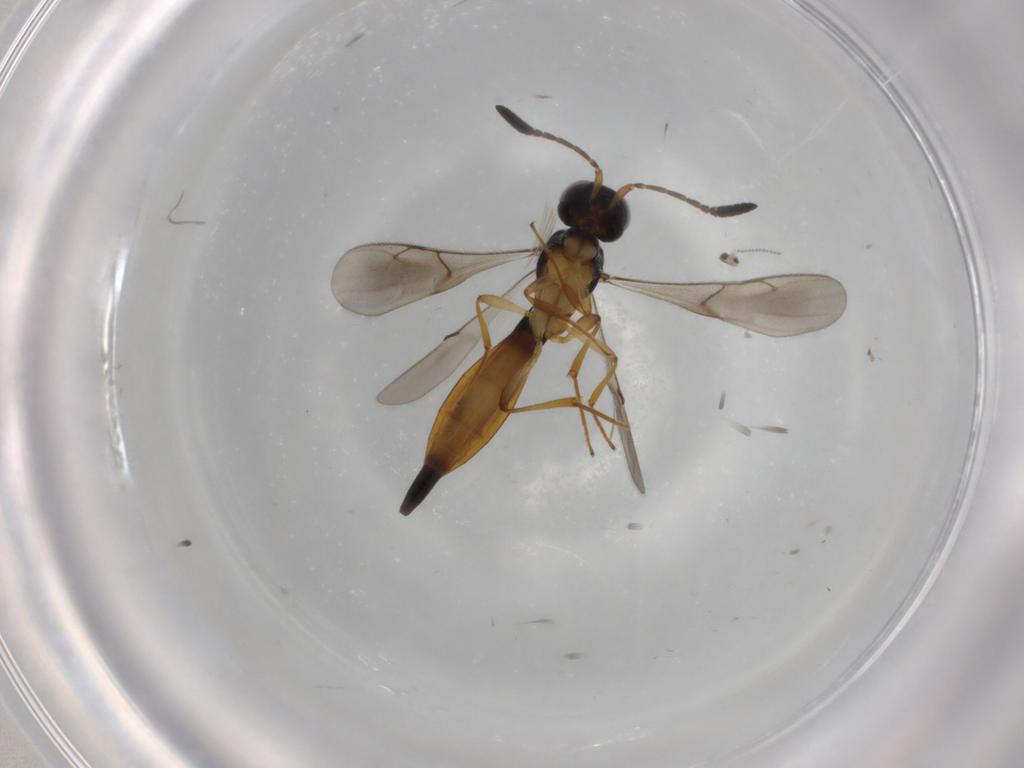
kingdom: Animalia
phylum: Arthropoda
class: Insecta
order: Hymenoptera
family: Scelionidae
